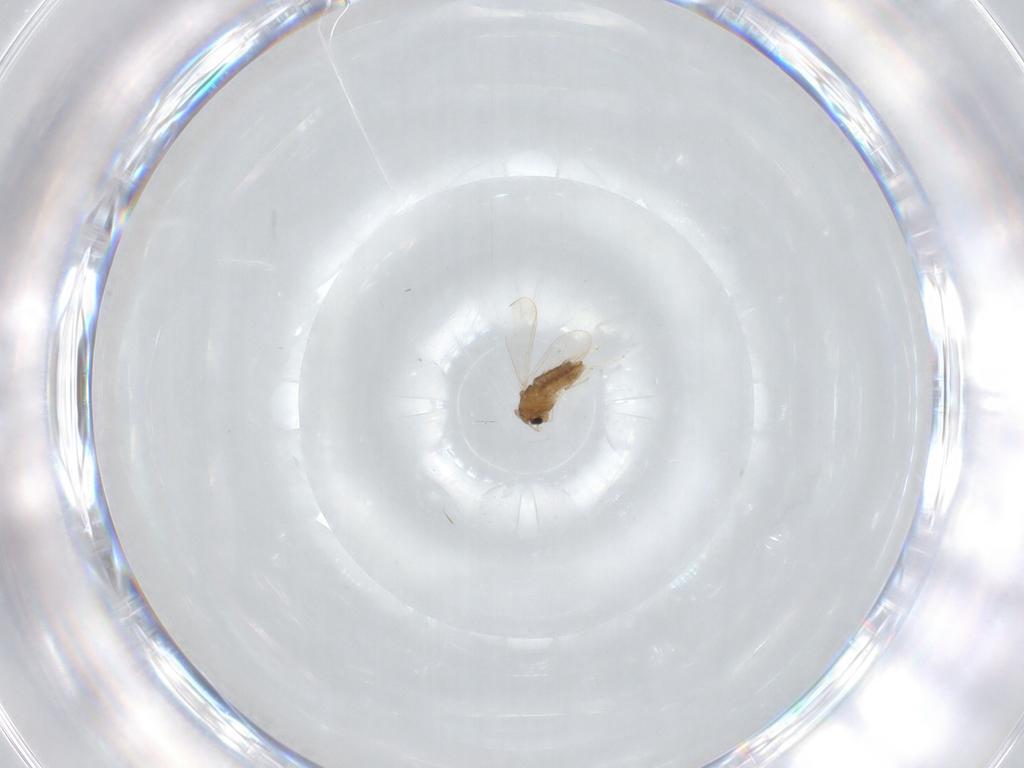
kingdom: Animalia
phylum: Arthropoda
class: Insecta
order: Diptera
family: Chironomidae
